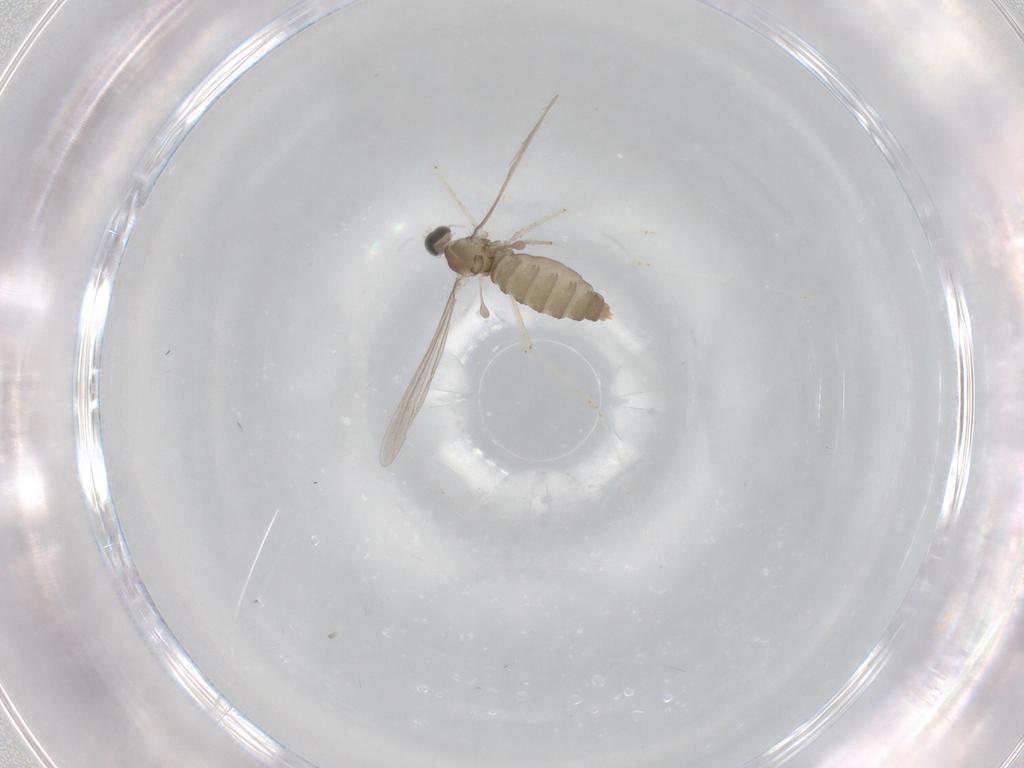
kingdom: Animalia
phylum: Arthropoda
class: Insecta
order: Diptera
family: Cecidomyiidae
